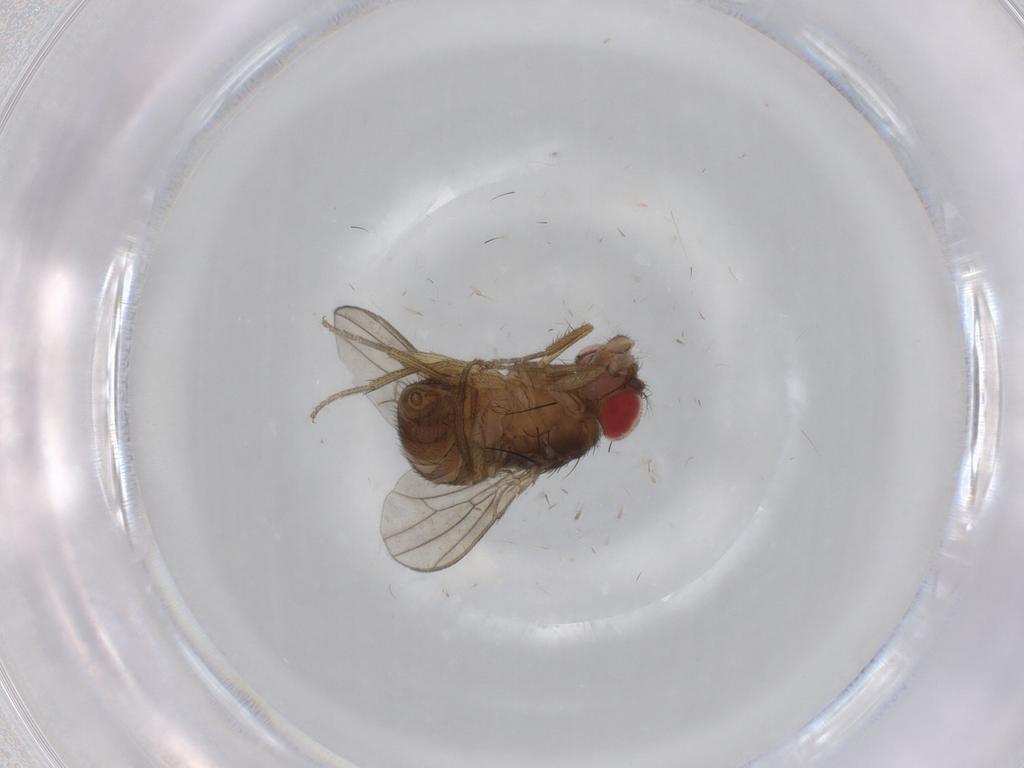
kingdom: Animalia
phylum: Arthropoda
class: Insecta
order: Diptera
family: Drosophilidae
